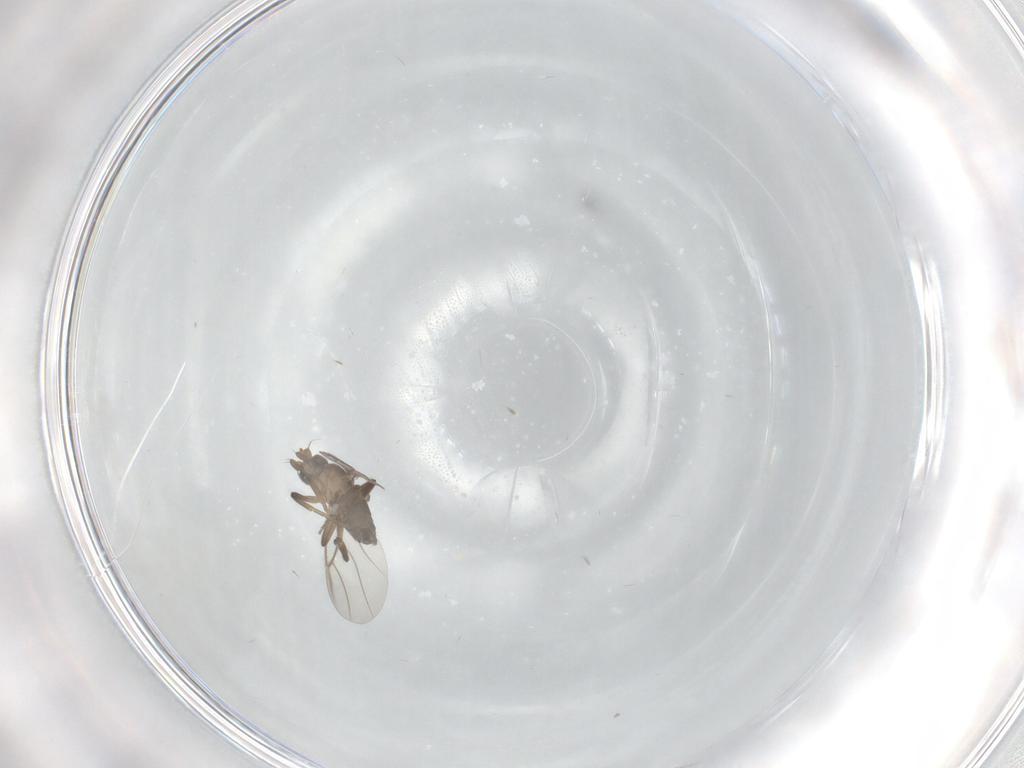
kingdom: Animalia
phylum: Arthropoda
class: Insecta
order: Diptera
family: Phoridae
